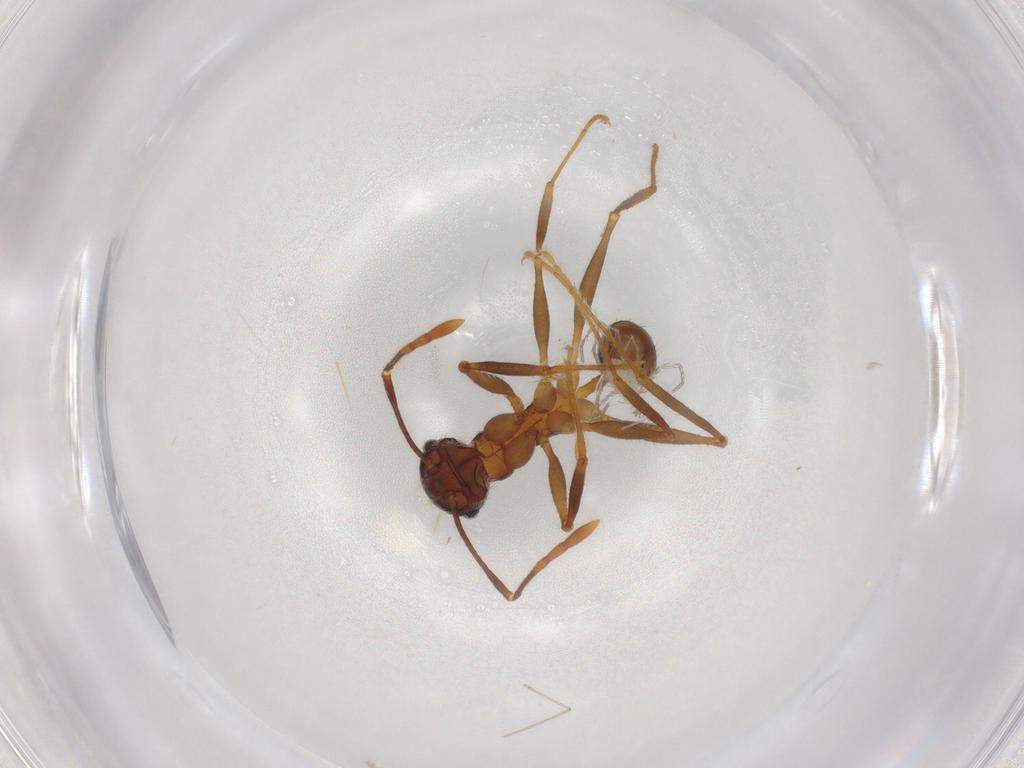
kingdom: Animalia
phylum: Arthropoda
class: Insecta
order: Hymenoptera
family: Formicidae
